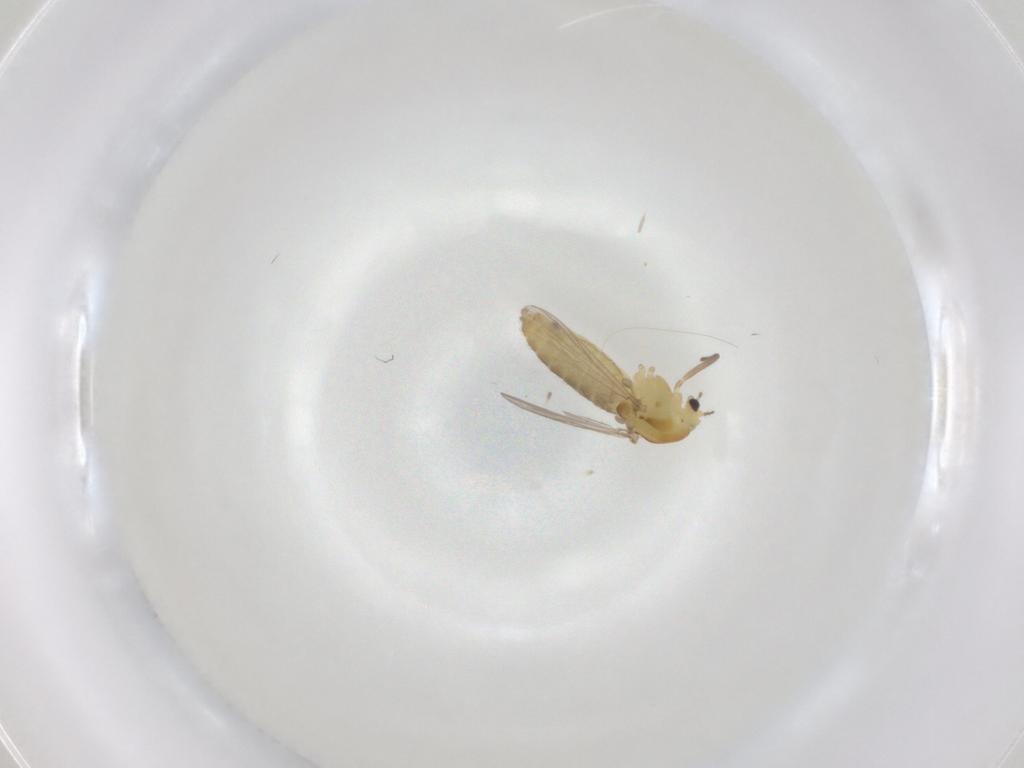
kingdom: Animalia
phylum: Arthropoda
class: Insecta
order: Diptera
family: Chironomidae
